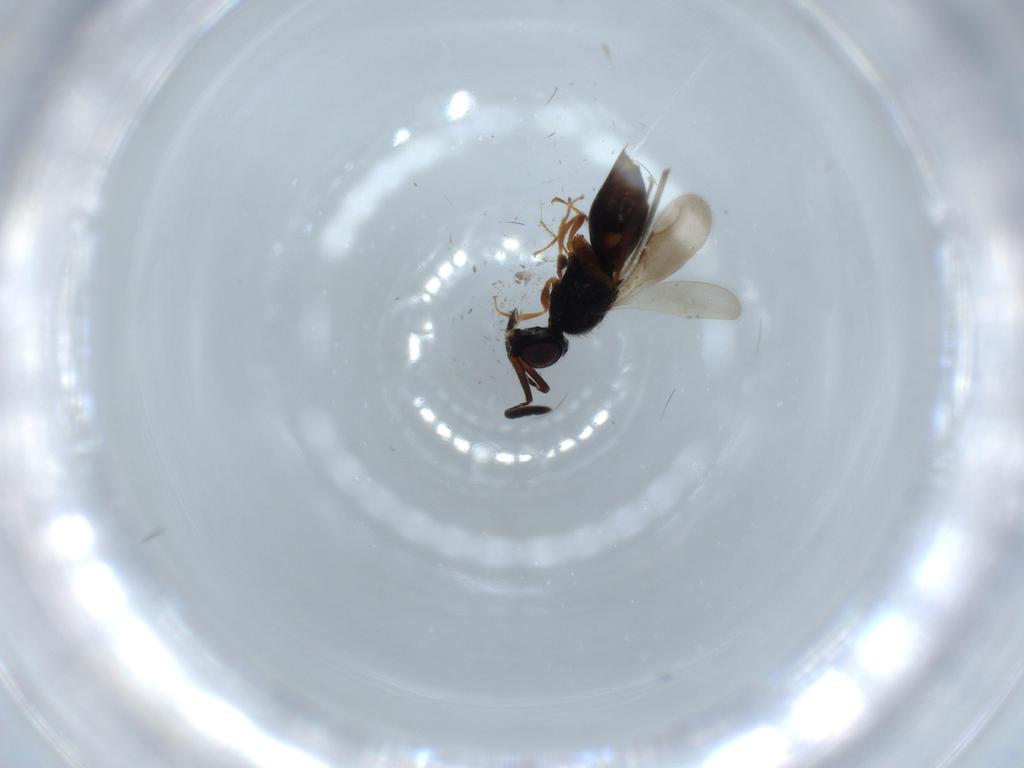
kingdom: Animalia
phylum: Arthropoda
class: Insecta
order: Hymenoptera
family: Ceraphronidae
